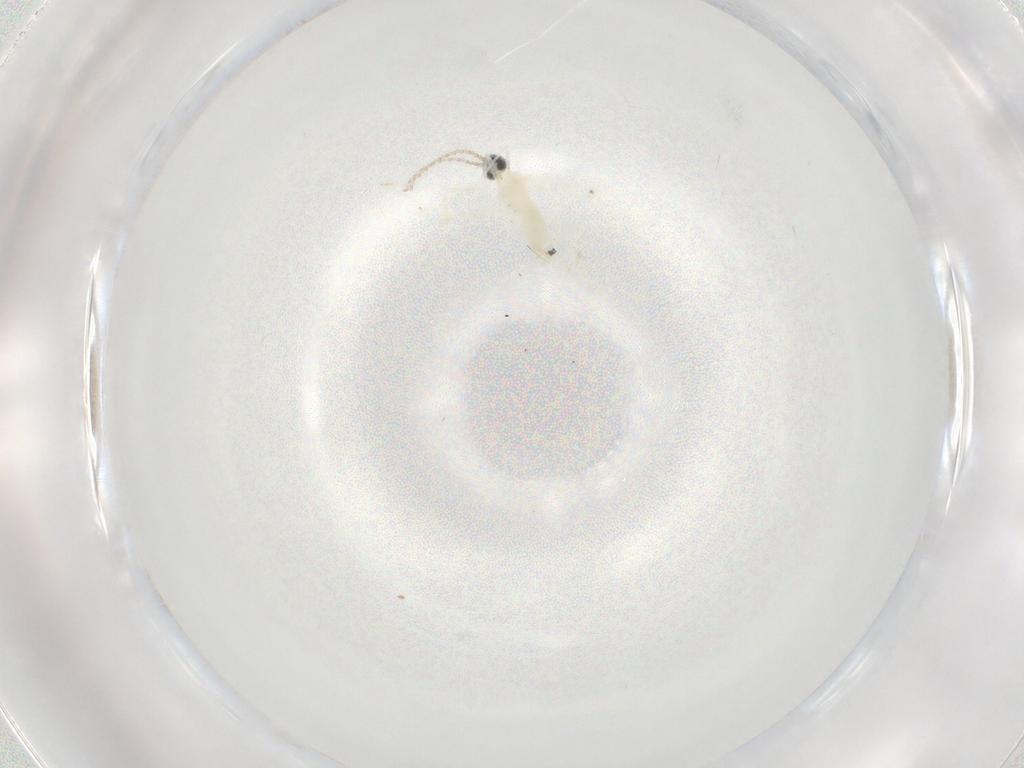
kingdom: Animalia
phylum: Arthropoda
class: Insecta
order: Diptera
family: Cecidomyiidae
